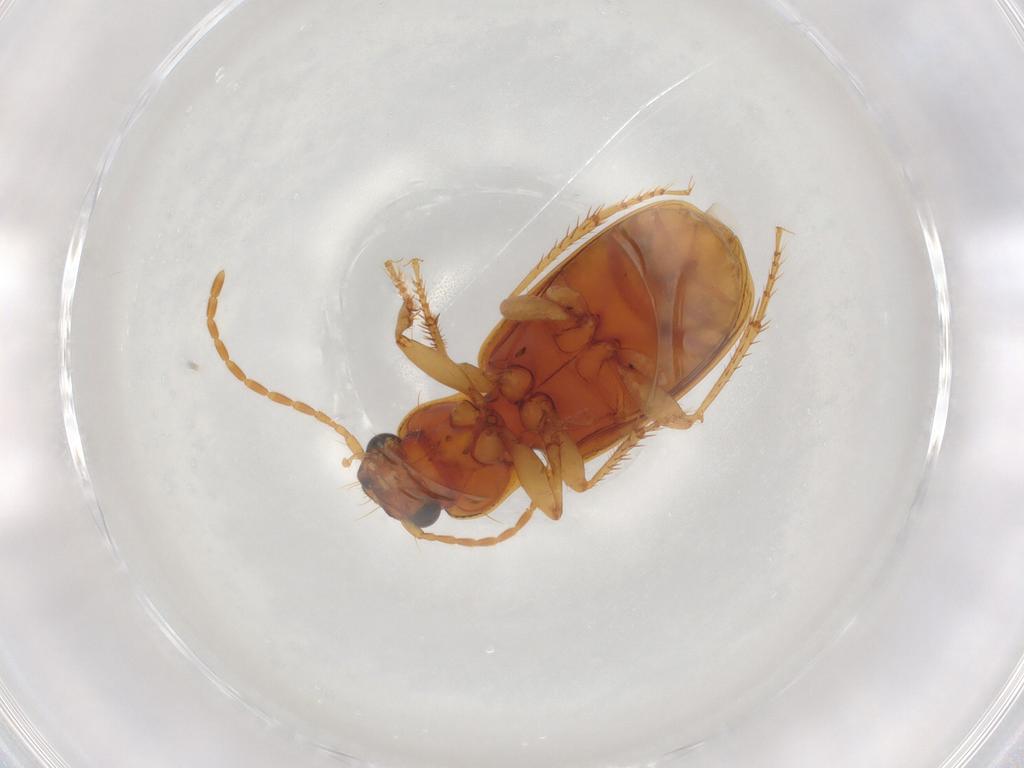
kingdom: Animalia
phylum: Arthropoda
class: Insecta
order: Coleoptera
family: Carabidae
